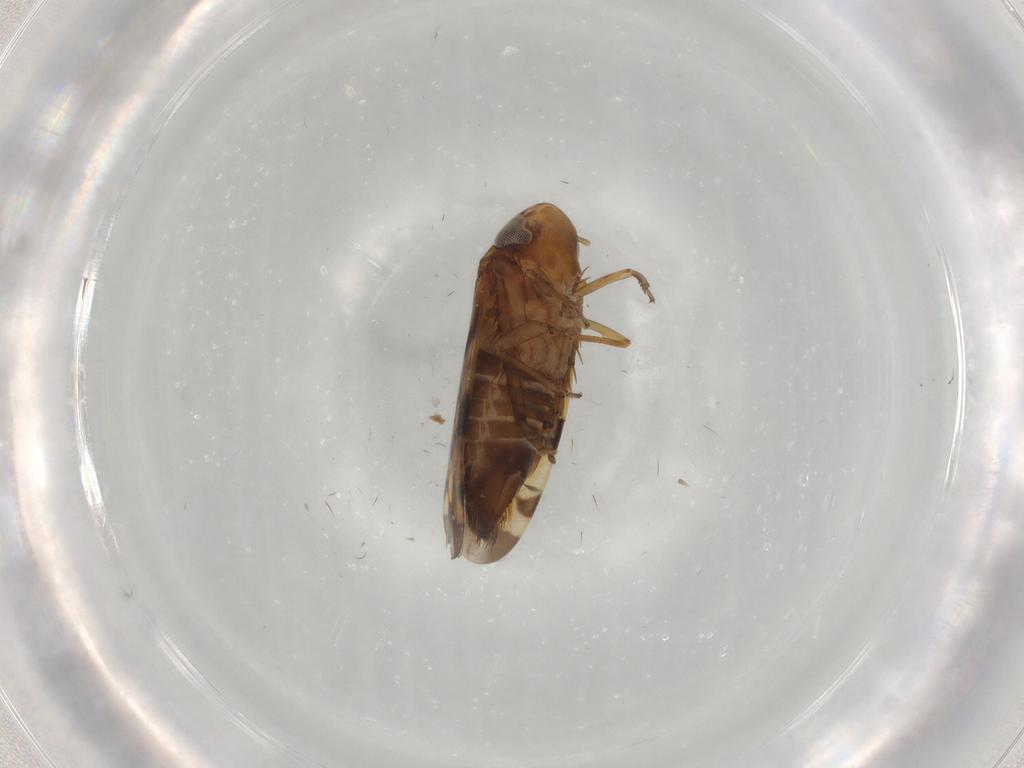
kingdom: Animalia
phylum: Arthropoda
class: Insecta
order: Hemiptera
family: Cicadellidae
